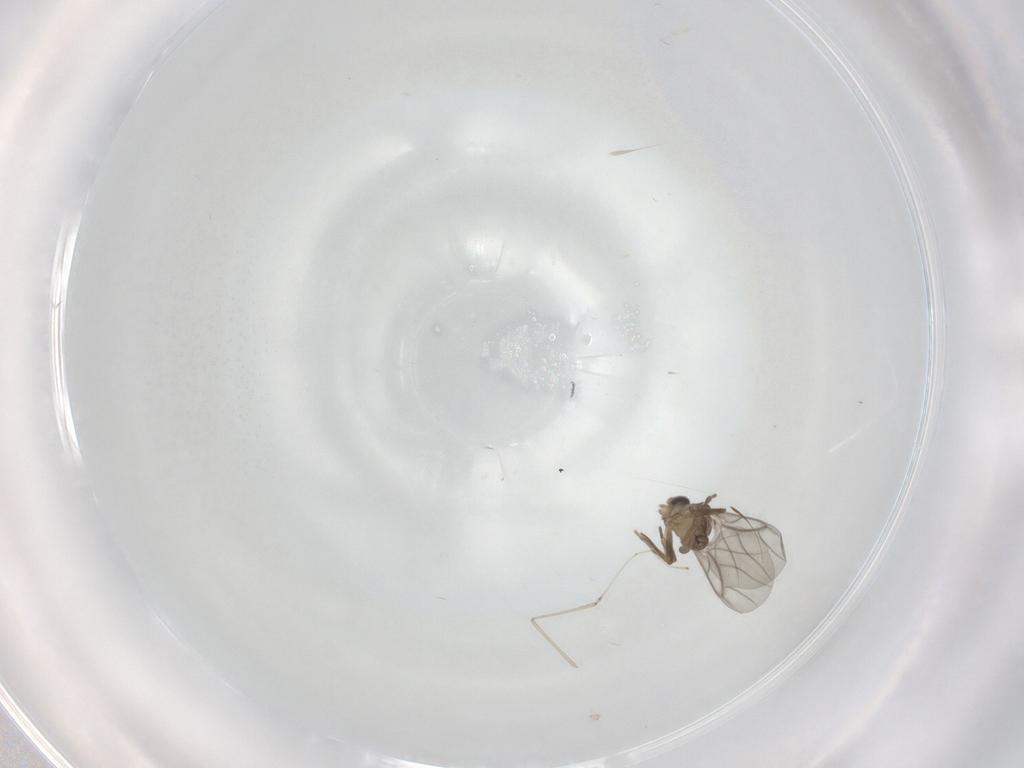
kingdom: Animalia
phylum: Arthropoda
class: Insecta
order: Diptera
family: Cecidomyiidae
